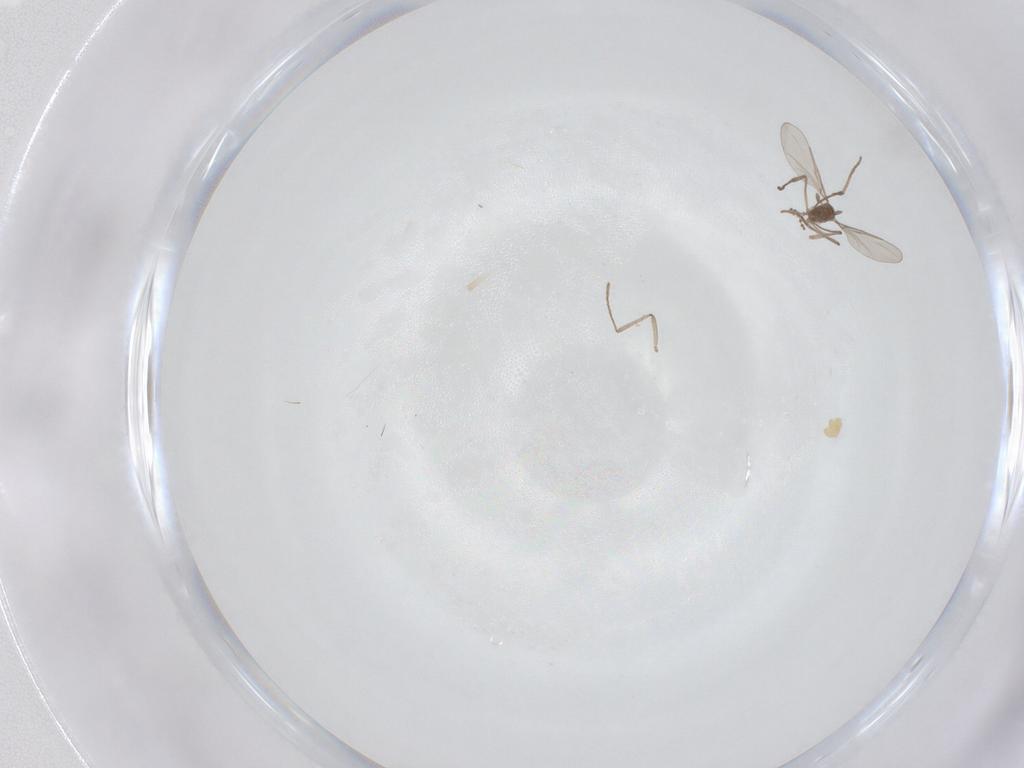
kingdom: Animalia
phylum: Arthropoda
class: Insecta
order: Diptera
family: Cecidomyiidae
